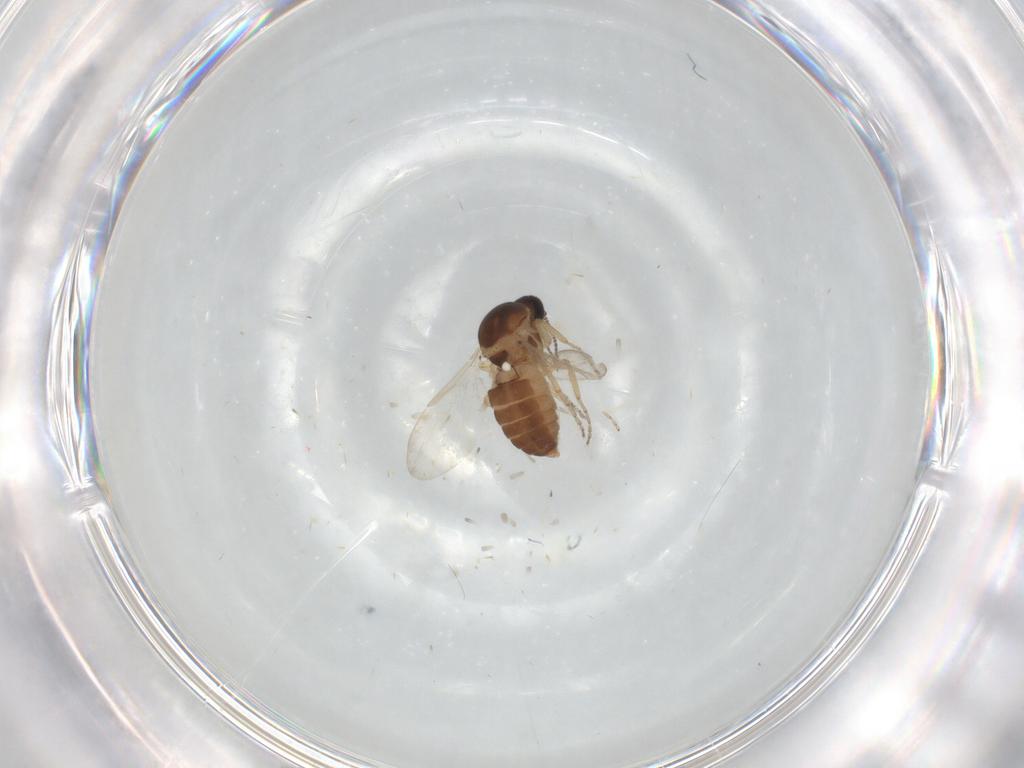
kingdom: Animalia
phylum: Arthropoda
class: Insecta
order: Diptera
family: Ceratopogonidae
